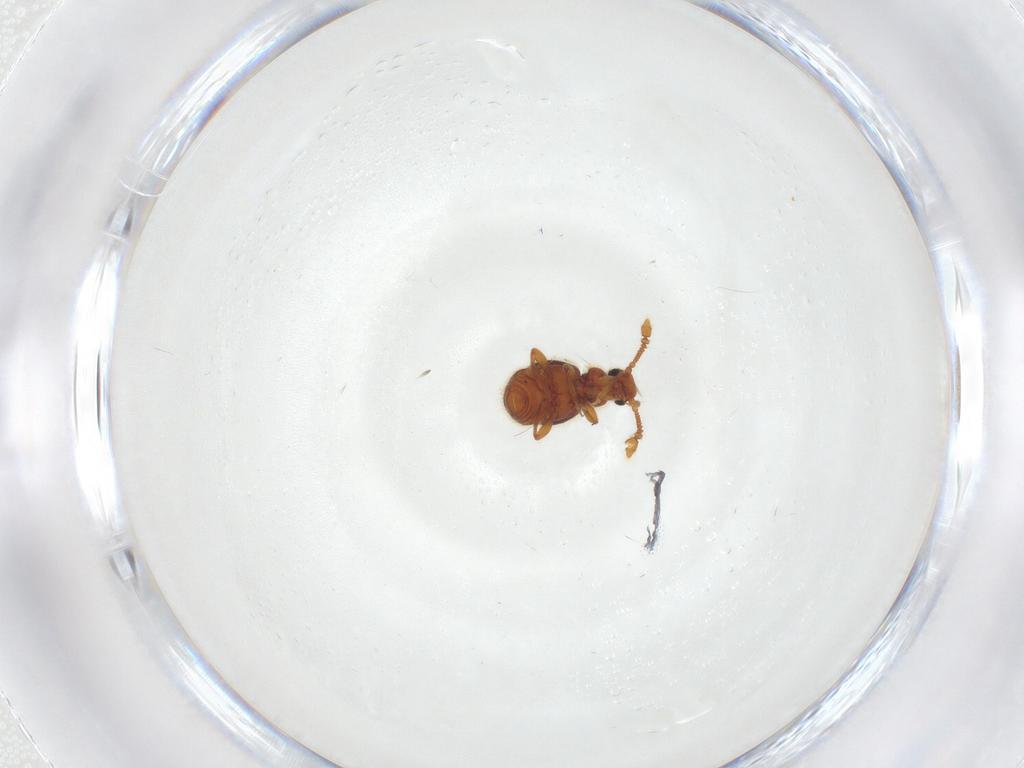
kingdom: Animalia
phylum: Arthropoda
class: Insecta
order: Coleoptera
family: Staphylinidae
